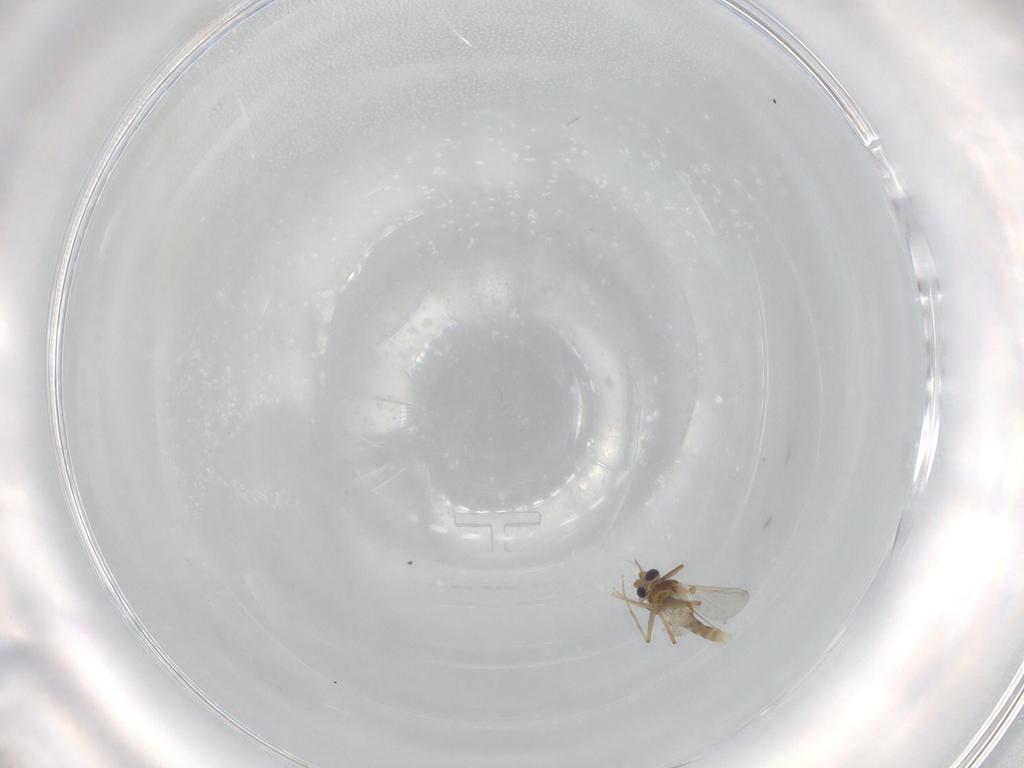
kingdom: Animalia
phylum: Arthropoda
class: Insecta
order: Diptera
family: Chironomidae
